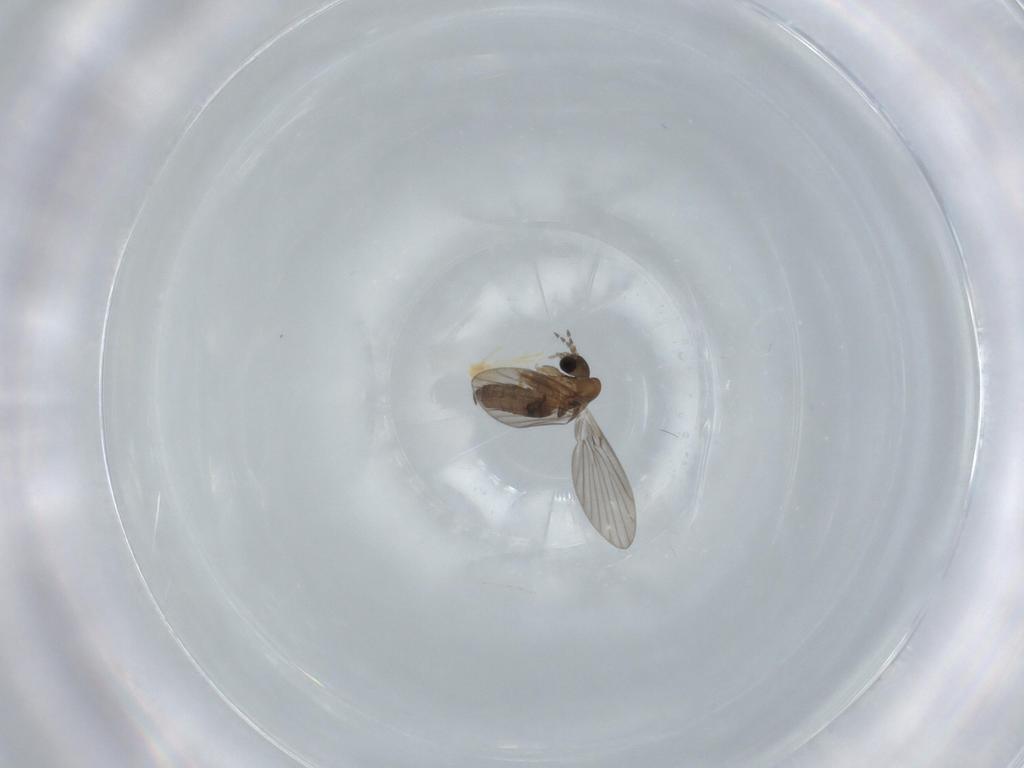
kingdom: Animalia
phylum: Arthropoda
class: Insecta
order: Diptera
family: Psychodidae
